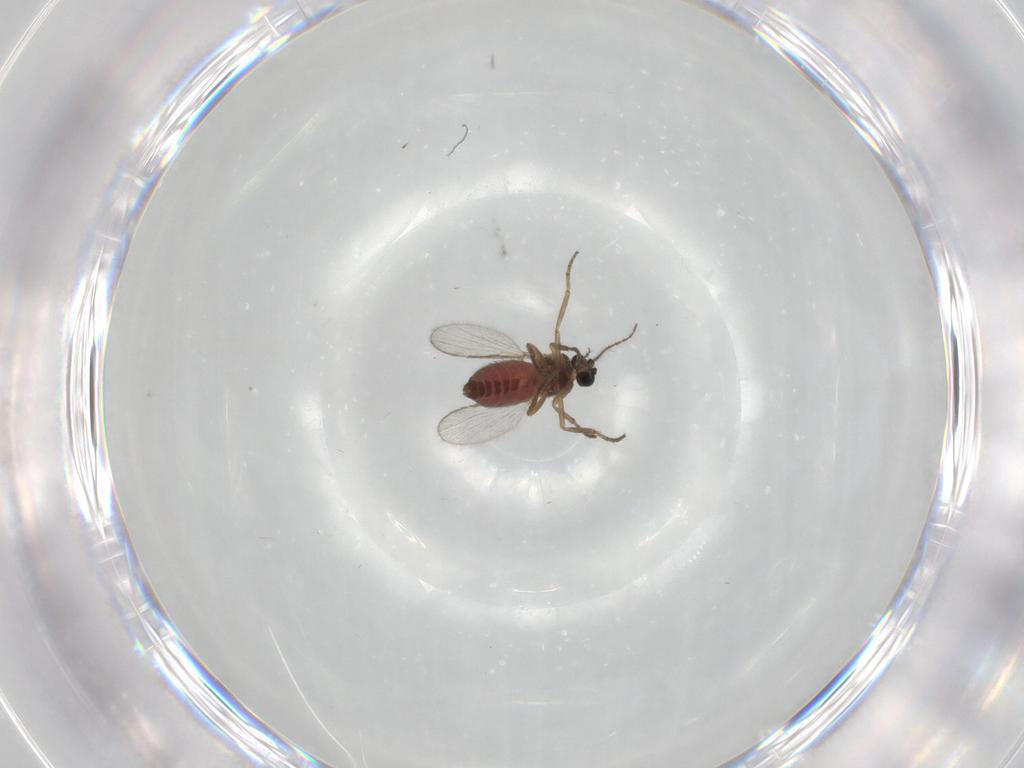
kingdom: Animalia
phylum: Arthropoda
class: Insecta
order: Diptera
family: Ceratopogonidae
